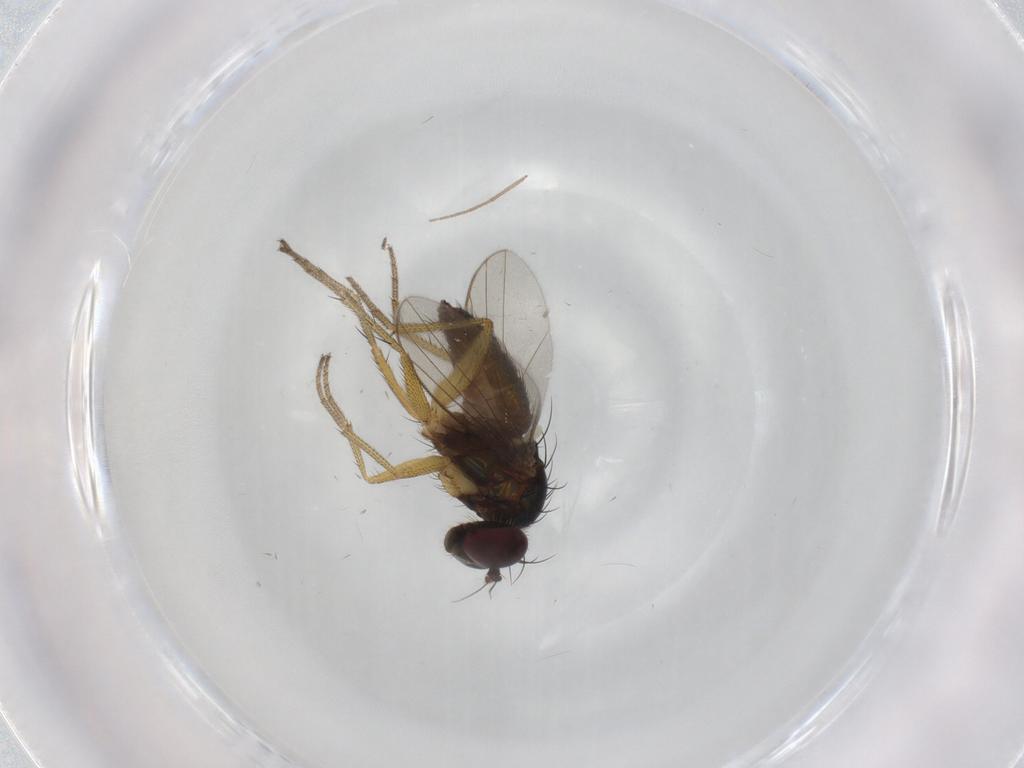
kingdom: Animalia
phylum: Arthropoda
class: Insecta
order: Diptera
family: Dolichopodidae
